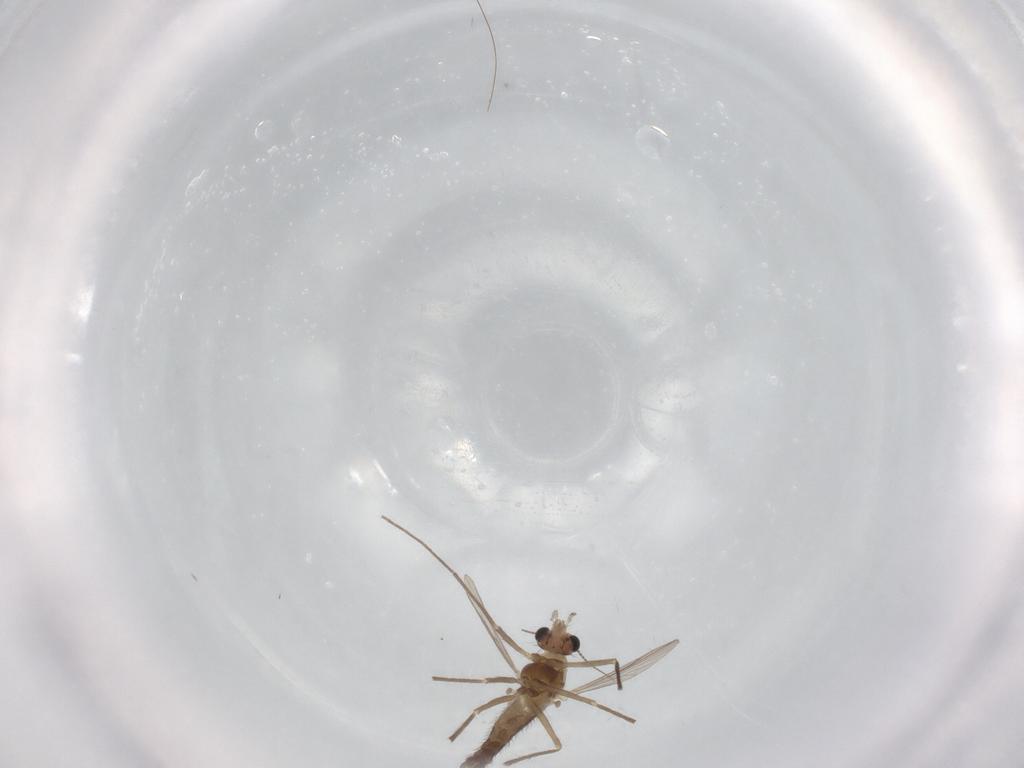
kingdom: Animalia
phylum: Arthropoda
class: Insecta
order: Diptera
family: Chironomidae
